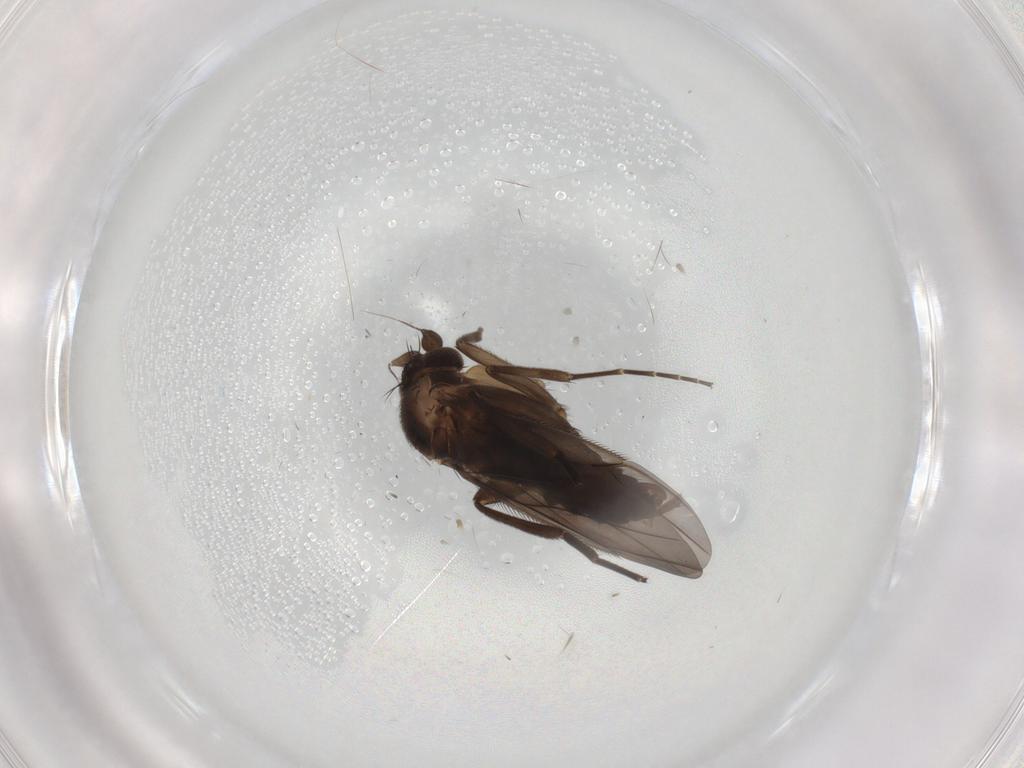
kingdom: Animalia
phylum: Arthropoda
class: Insecta
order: Diptera
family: Phoridae
